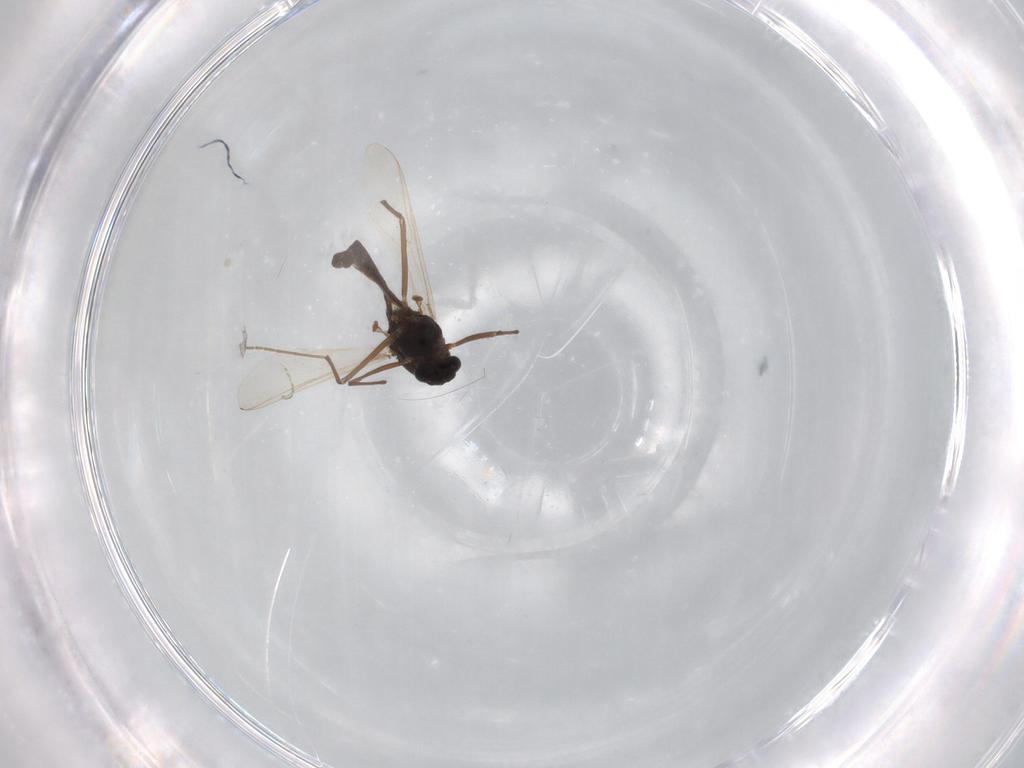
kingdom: Animalia
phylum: Arthropoda
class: Insecta
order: Diptera
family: Chironomidae
